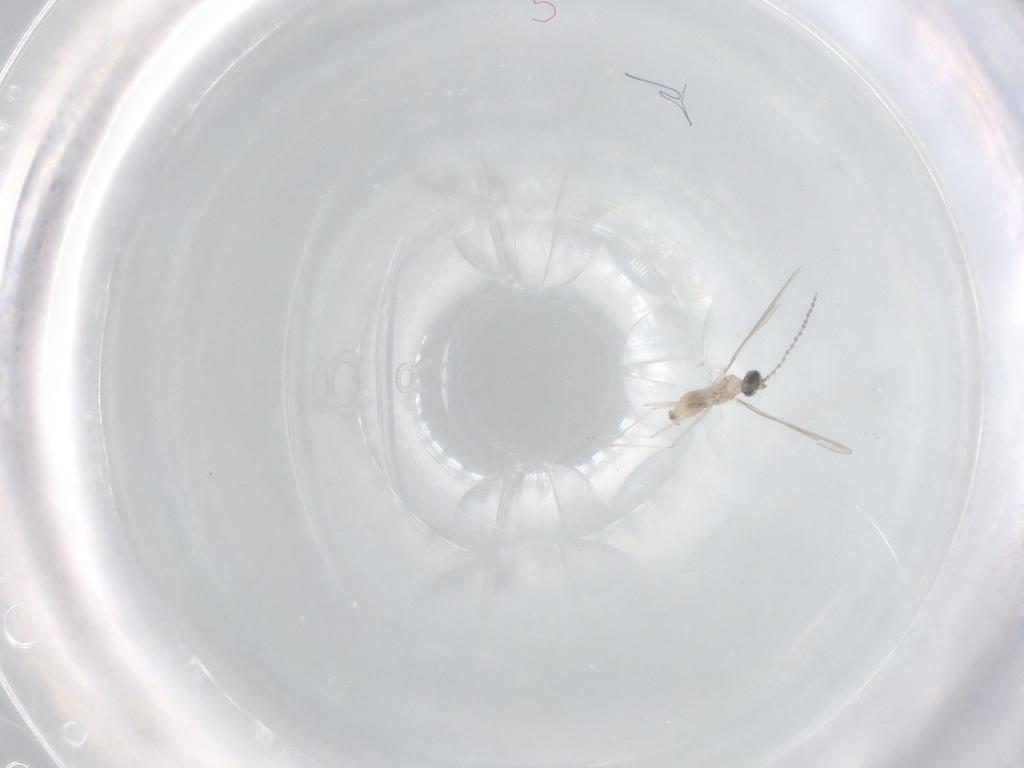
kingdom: Animalia
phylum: Arthropoda
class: Insecta
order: Diptera
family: Cecidomyiidae
